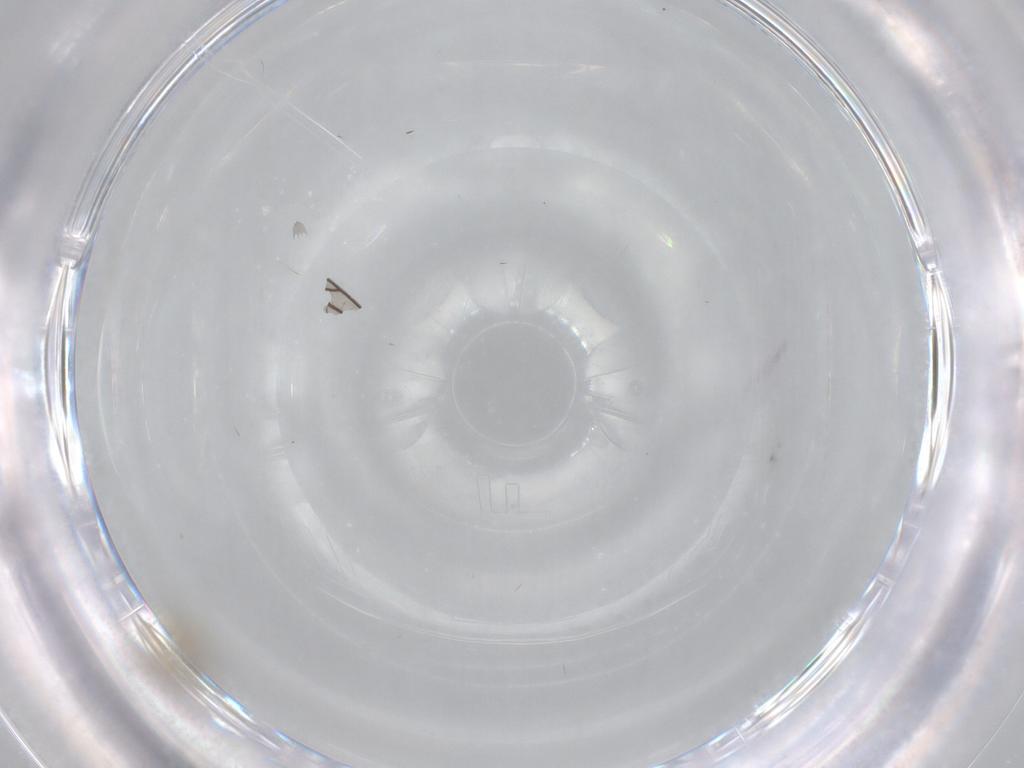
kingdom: Animalia
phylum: Arthropoda
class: Insecta
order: Diptera
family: Ceratopogonidae
